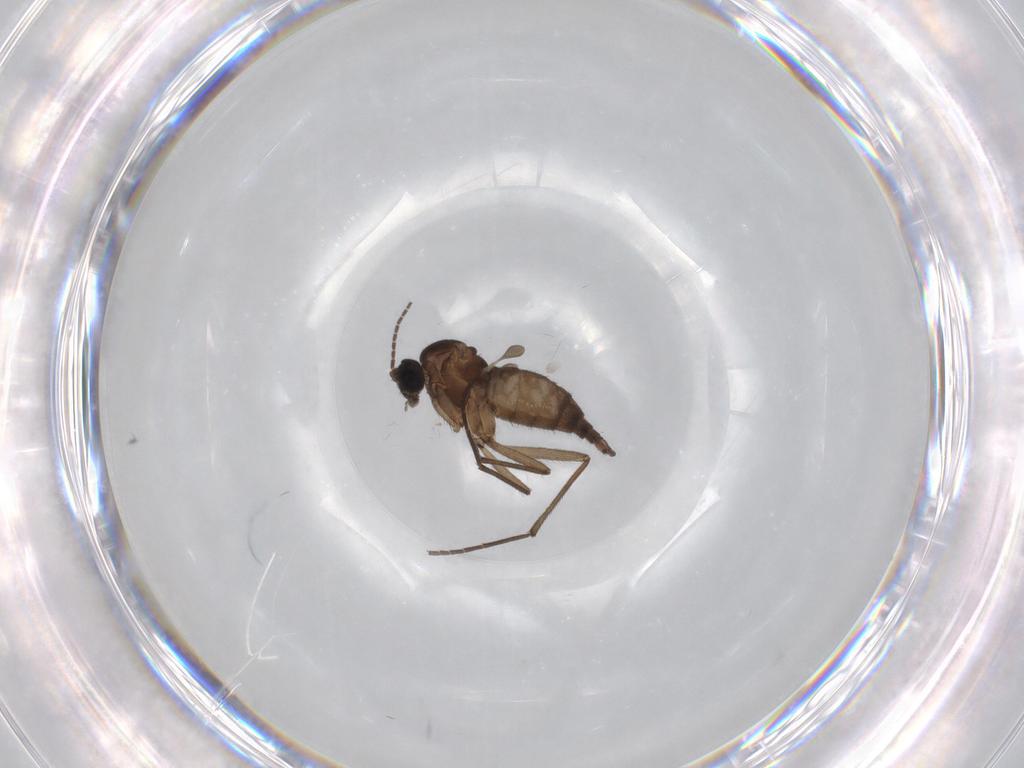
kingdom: Animalia
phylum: Arthropoda
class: Insecta
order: Diptera
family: Sciaridae
